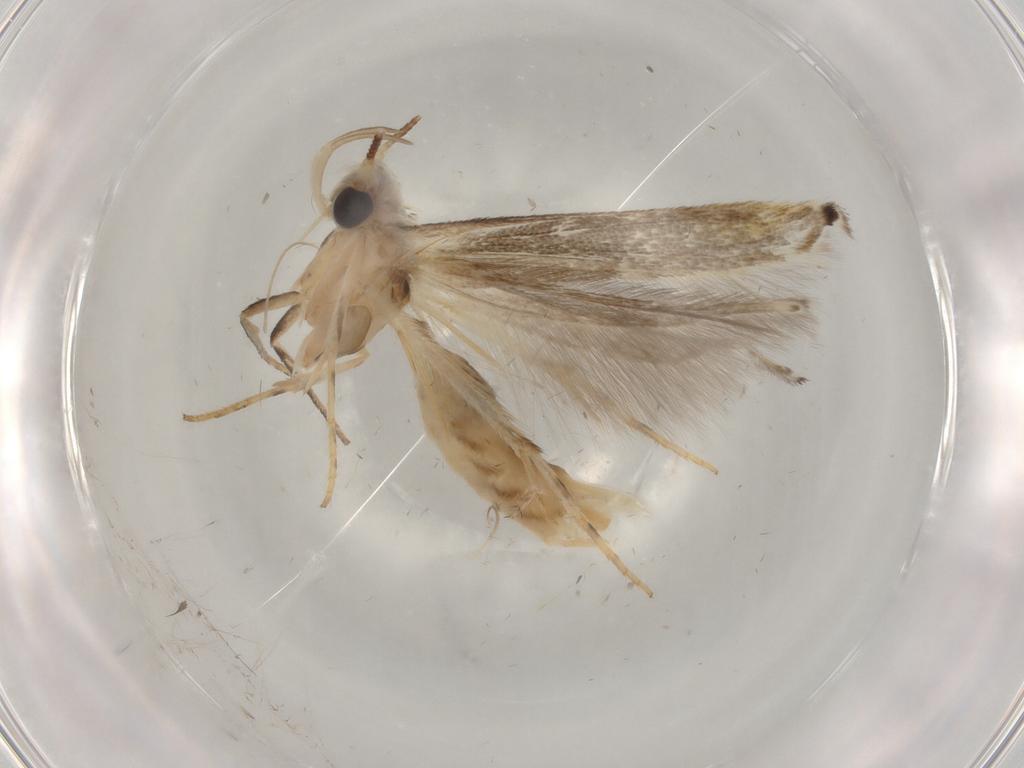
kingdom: Animalia
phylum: Arthropoda
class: Insecta
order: Lepidoptera
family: Gelechiidae
